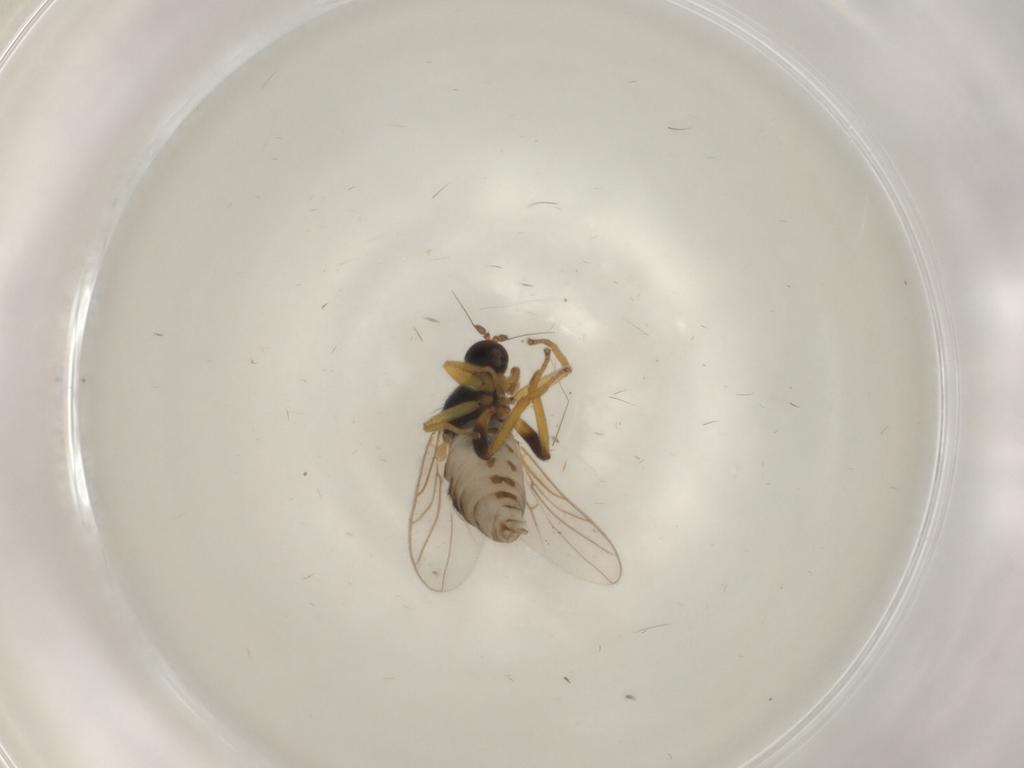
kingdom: Animalia
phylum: Arthropoda
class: Insecta
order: Diptera
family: Hybotidae
